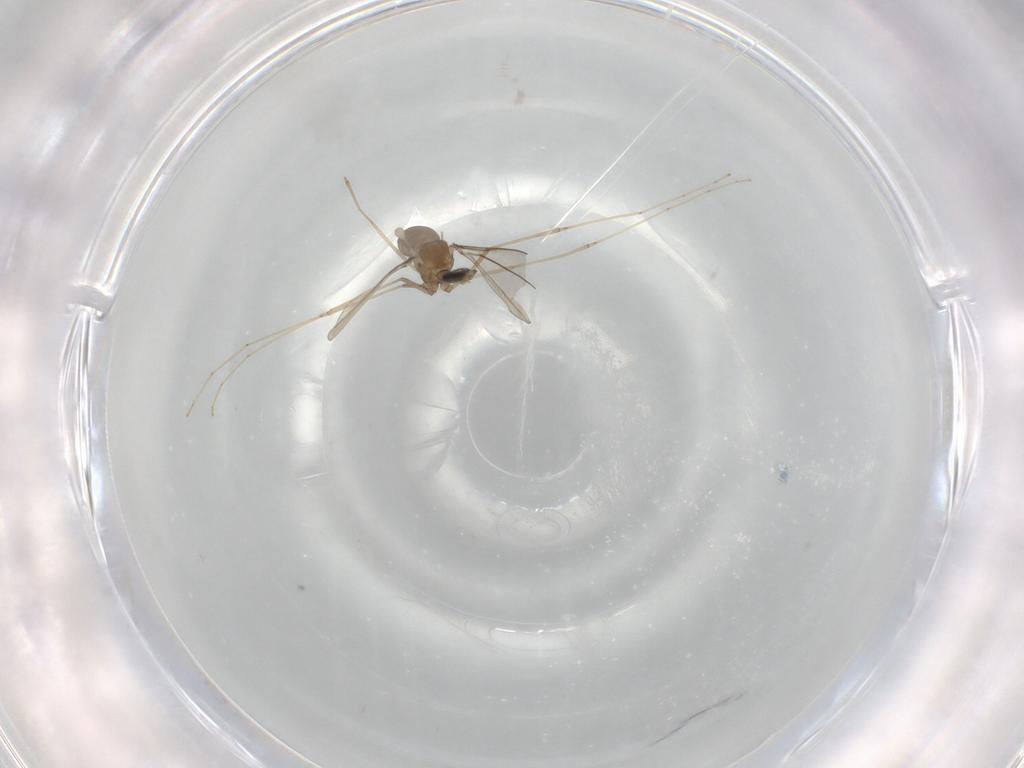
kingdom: Animalia
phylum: Arthropoda
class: Insecta
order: Diptera
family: Cecidomyiidae
